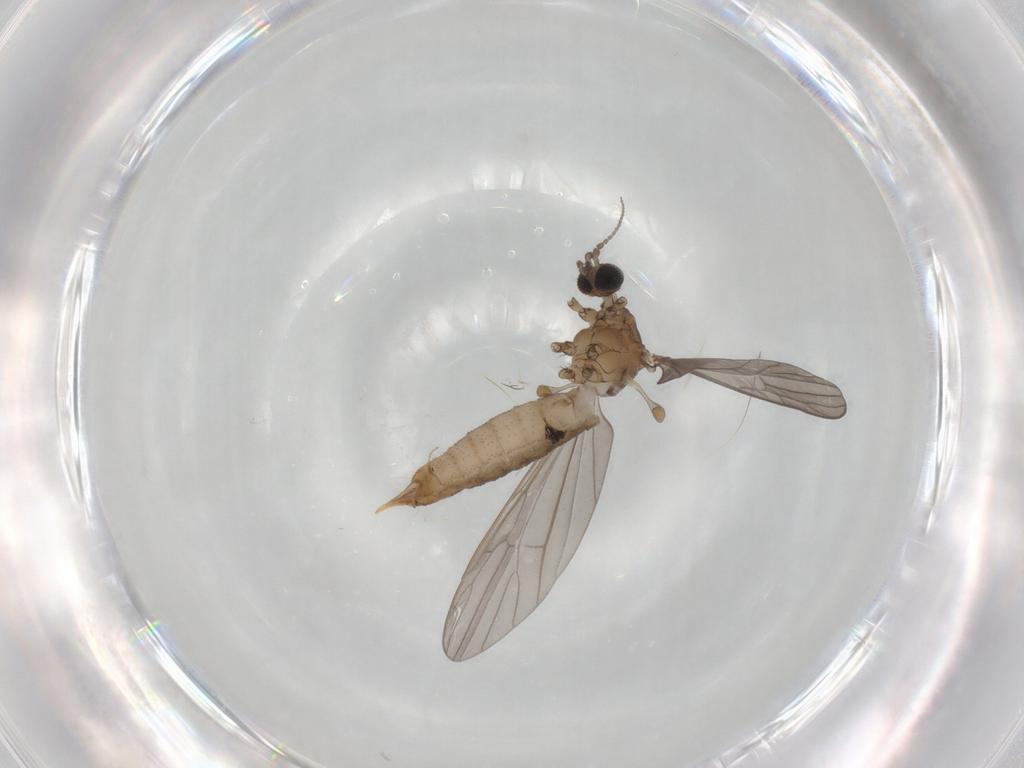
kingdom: Animalia
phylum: Arthropoda
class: Insecta
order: Diptera
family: Limoniidae
